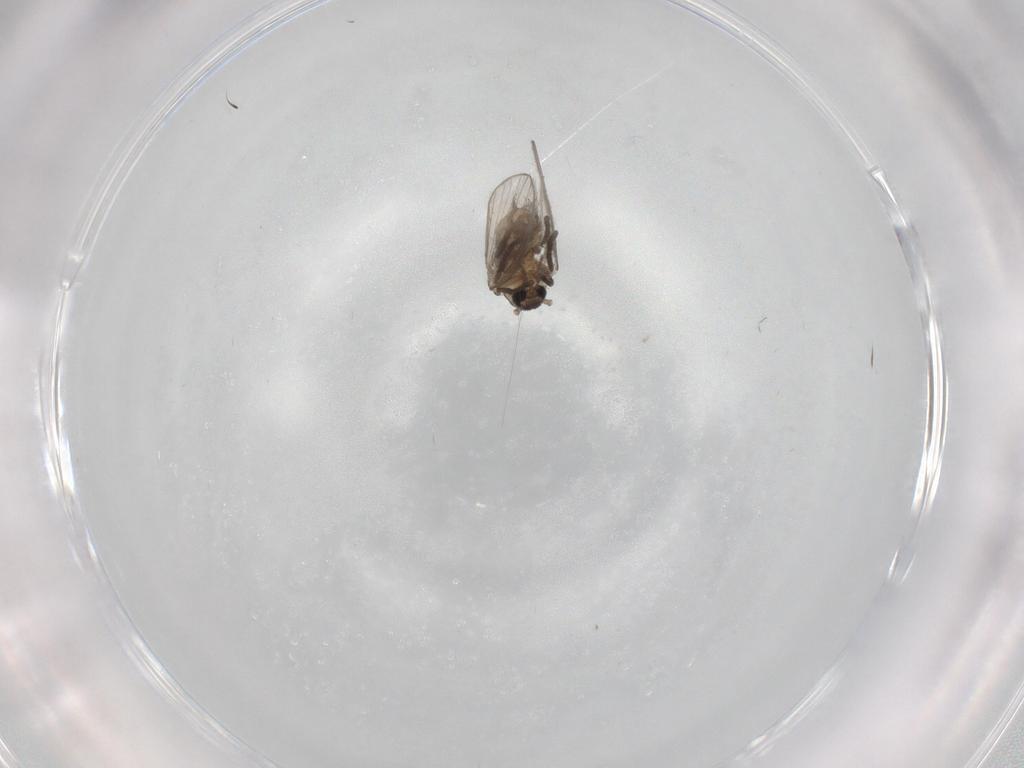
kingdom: Animalia
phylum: Arthropoda
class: Insecta
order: Diptera
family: Psychodidae
